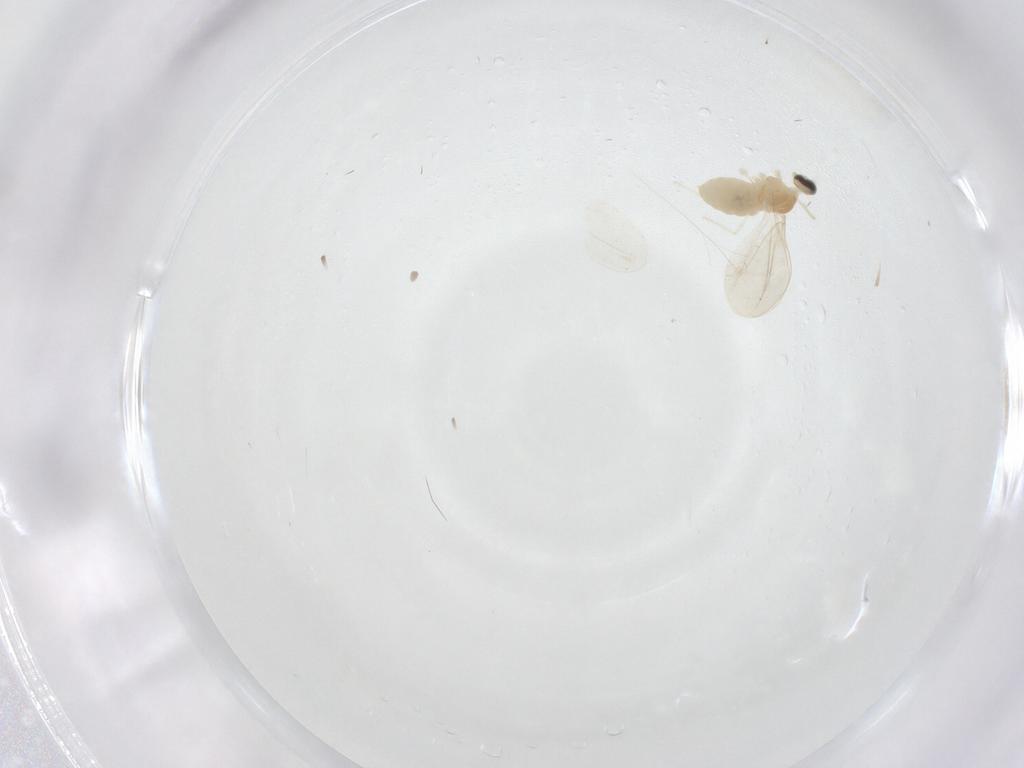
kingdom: Animalia
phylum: Arthropoda
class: Insecta
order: Diptera
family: Cecidomyiidae
